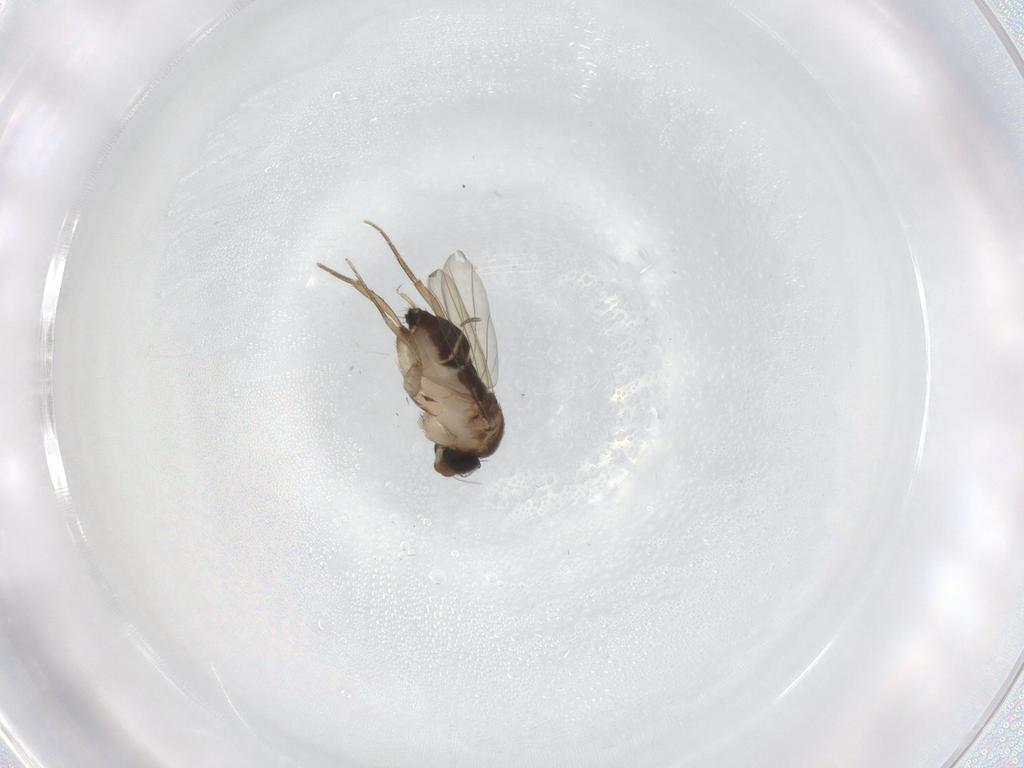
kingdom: Animalia
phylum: Arthropoda
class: Insecta
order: Diptera
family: Phoridae
